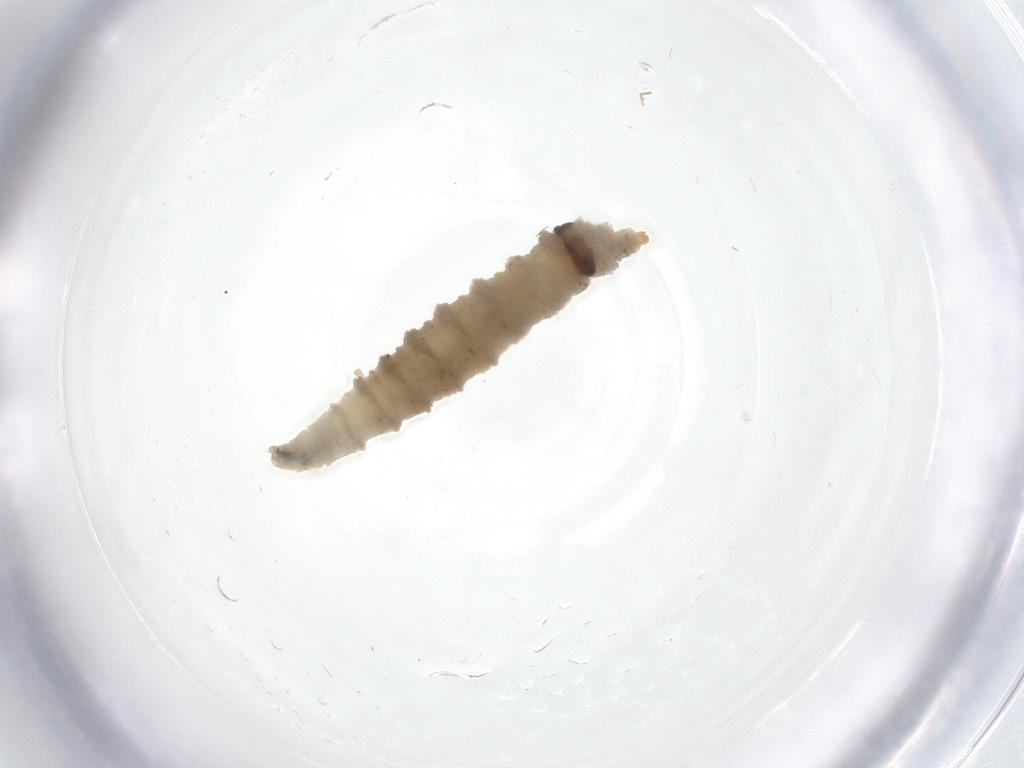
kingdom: Animalia
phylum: Arthropoda
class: Insecta
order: Diptera
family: Drosophilidae
